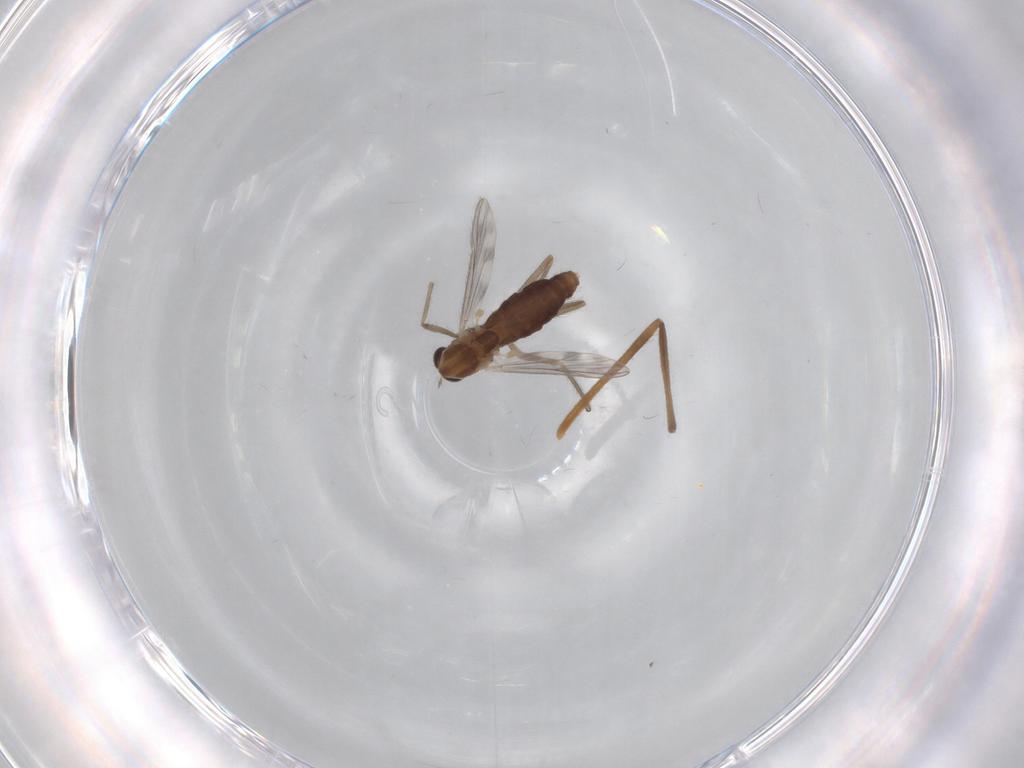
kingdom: Animalia
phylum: Arthropoda
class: Insecta
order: Diptera
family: Chironomidae
